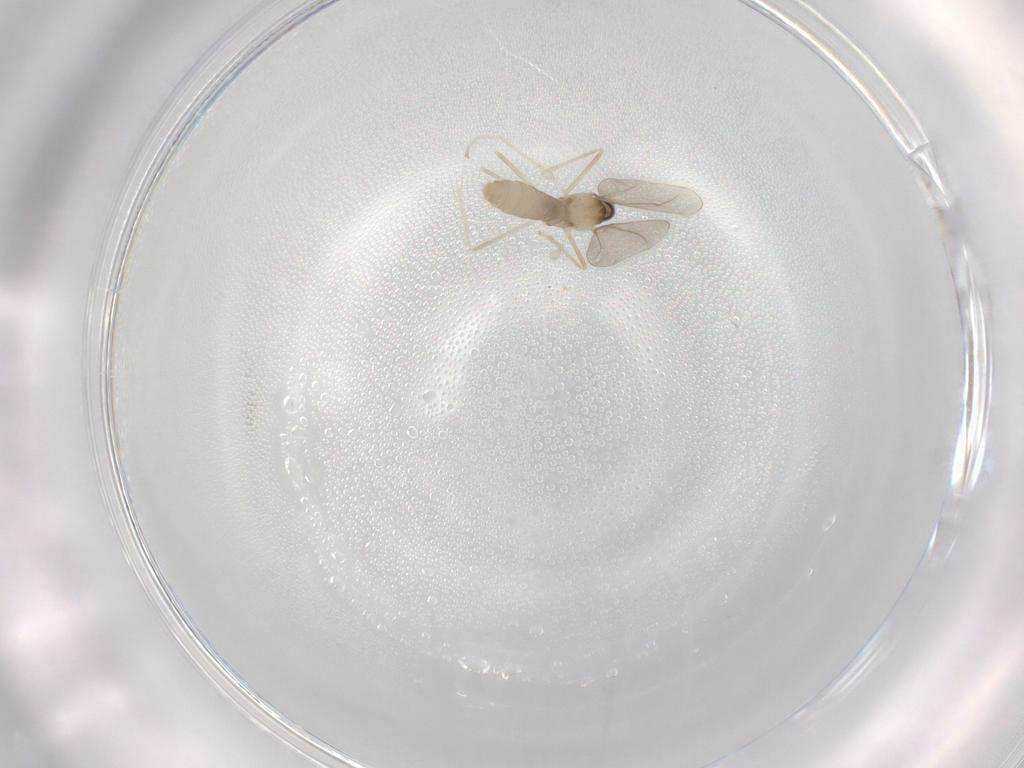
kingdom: Animalia
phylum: Arthropoda
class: Insecta
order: Diptera
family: Cecidomyiidae
